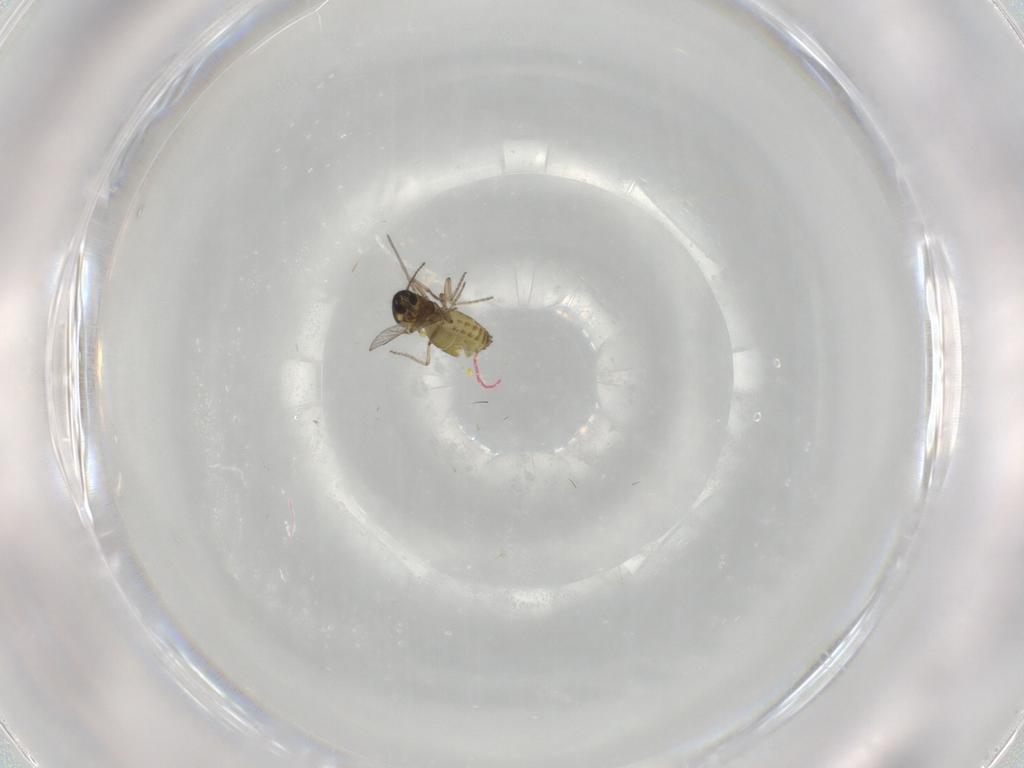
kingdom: Animalia
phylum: Arthropoda
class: Insecta
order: Diptera
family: Ceratopogonidae
